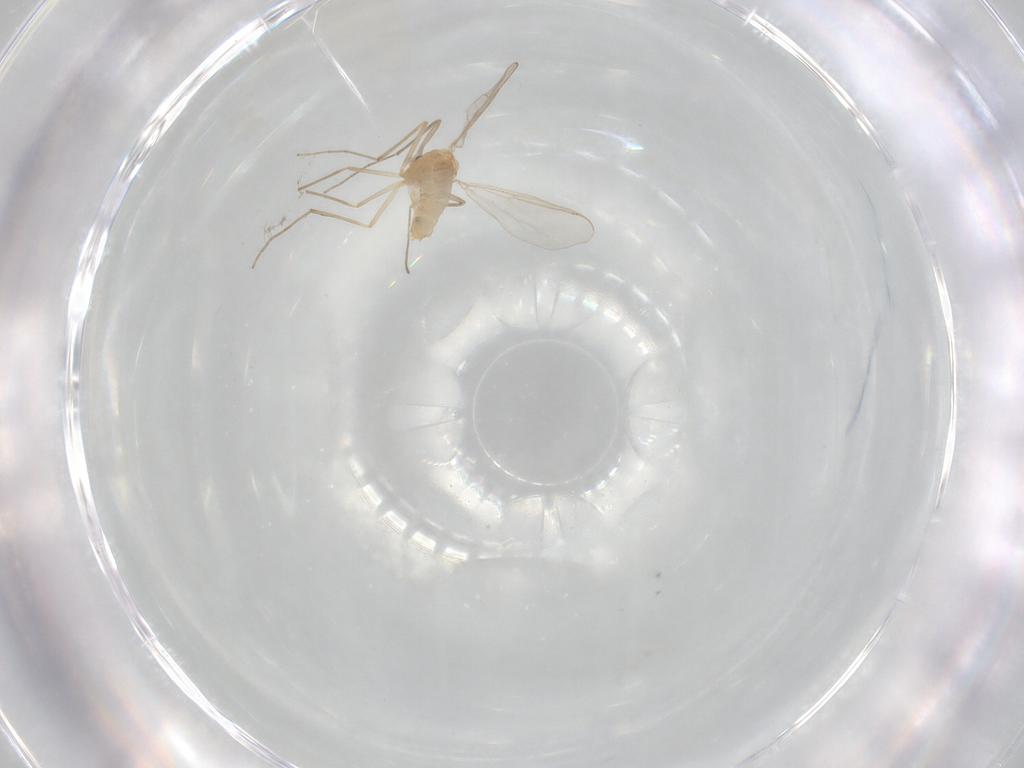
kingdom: Animalia
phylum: Arthropoda
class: Insecta
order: Diptera
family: Chironomidae
